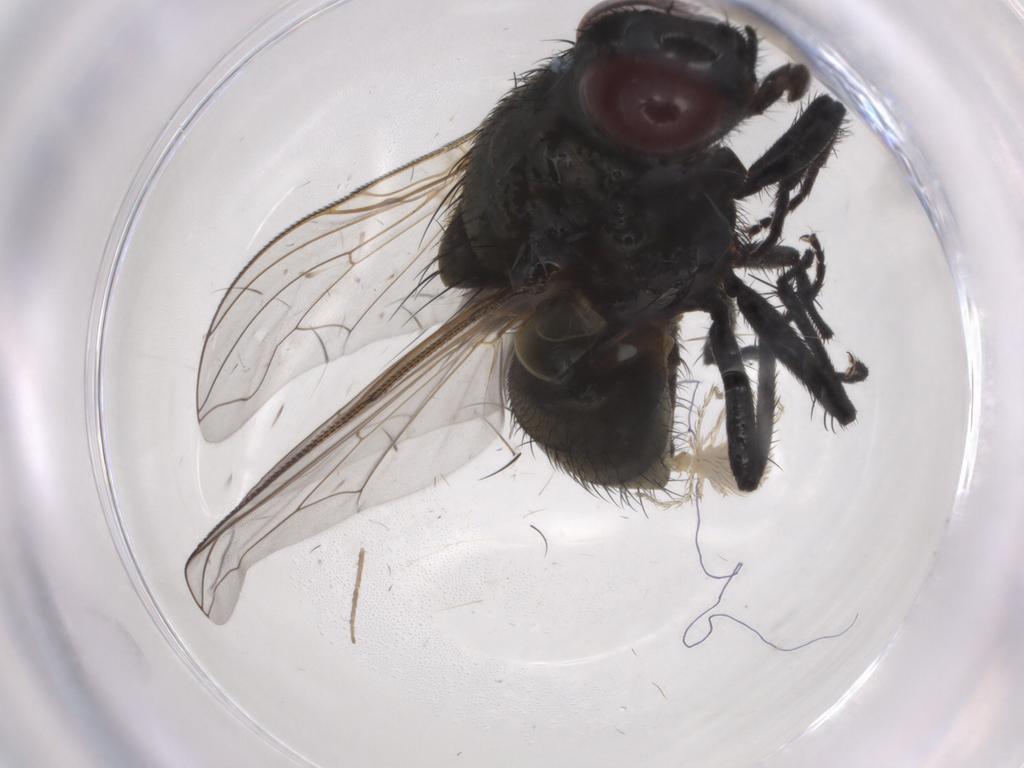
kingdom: Animalia
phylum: Arthropoda
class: Insecta
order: Diptera
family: Muscidae
